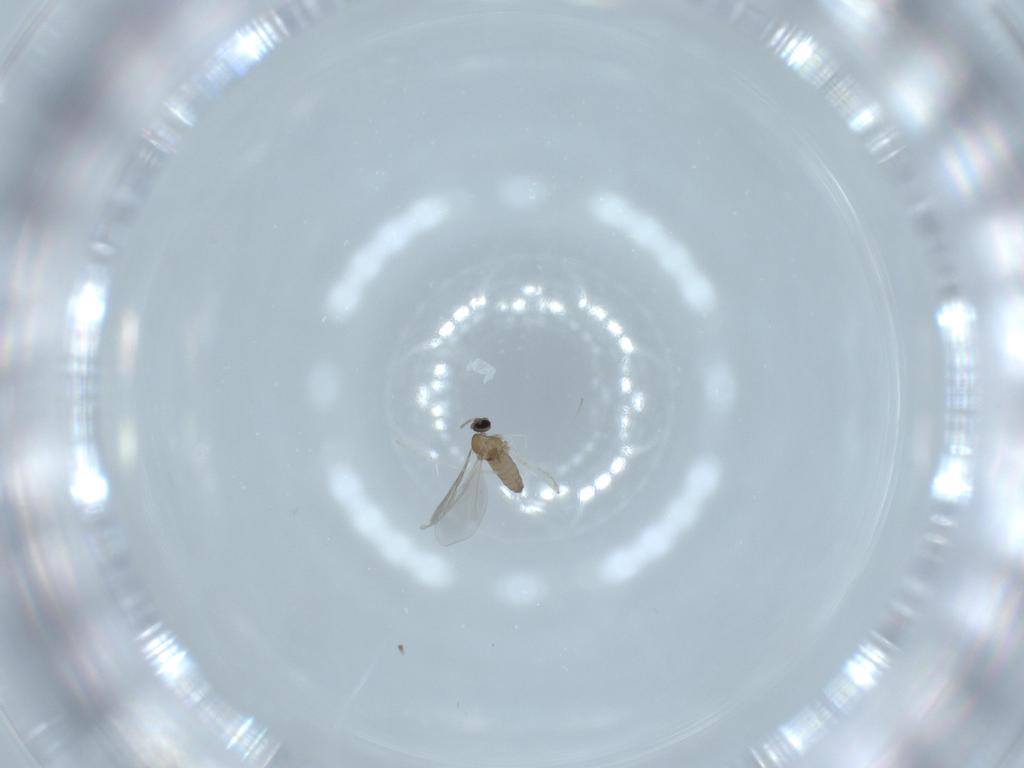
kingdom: Animalia
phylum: Arthropoda
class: Insecta
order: Diptera
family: Cecidomyiidae
